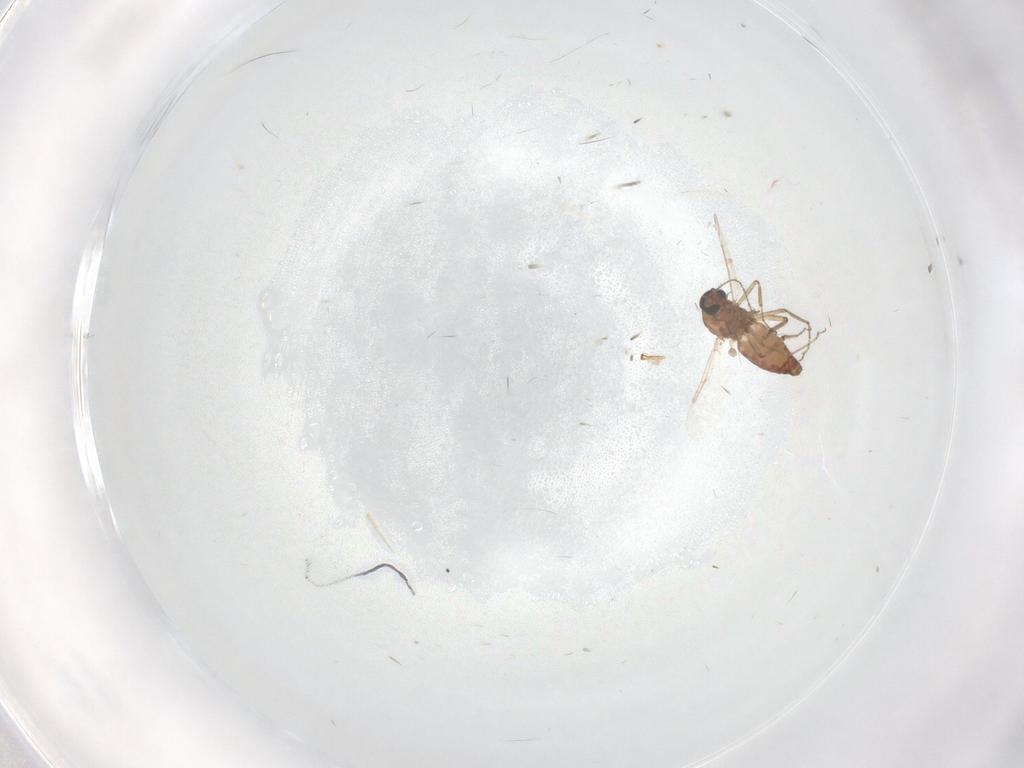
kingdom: Animalia
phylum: Arthropoda
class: Insecta
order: Diptera
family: Ceratopogonidae
